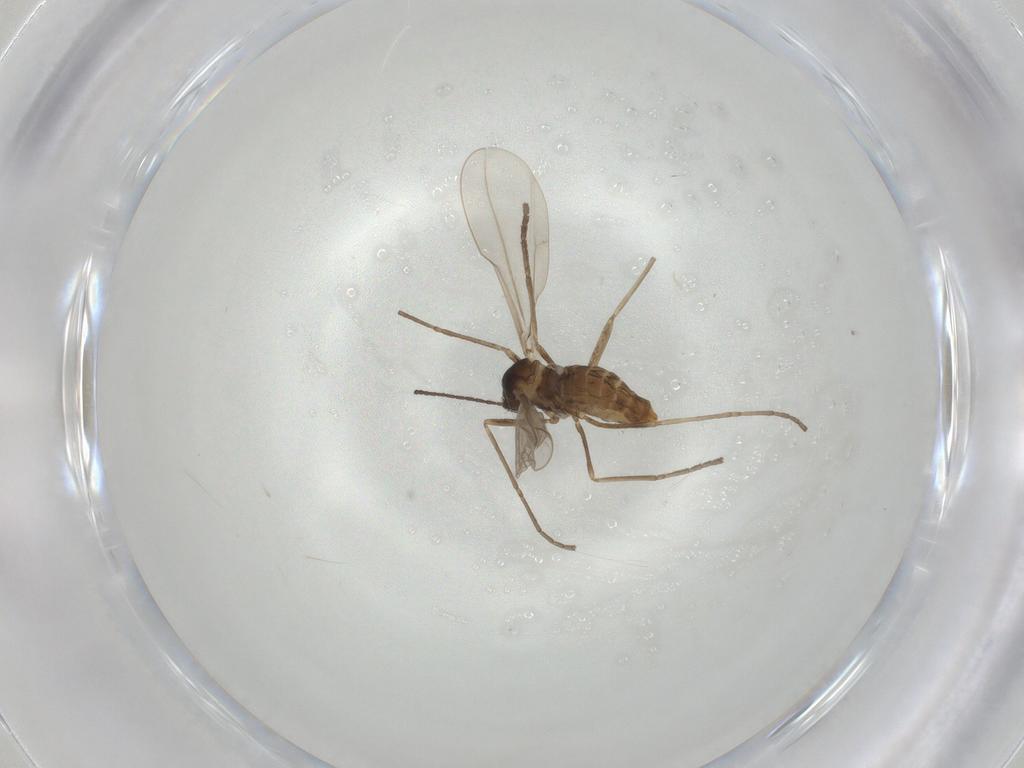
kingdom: Animalia
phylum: Arthropoda
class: Insecta
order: Diptera
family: Cecidomyiidae
